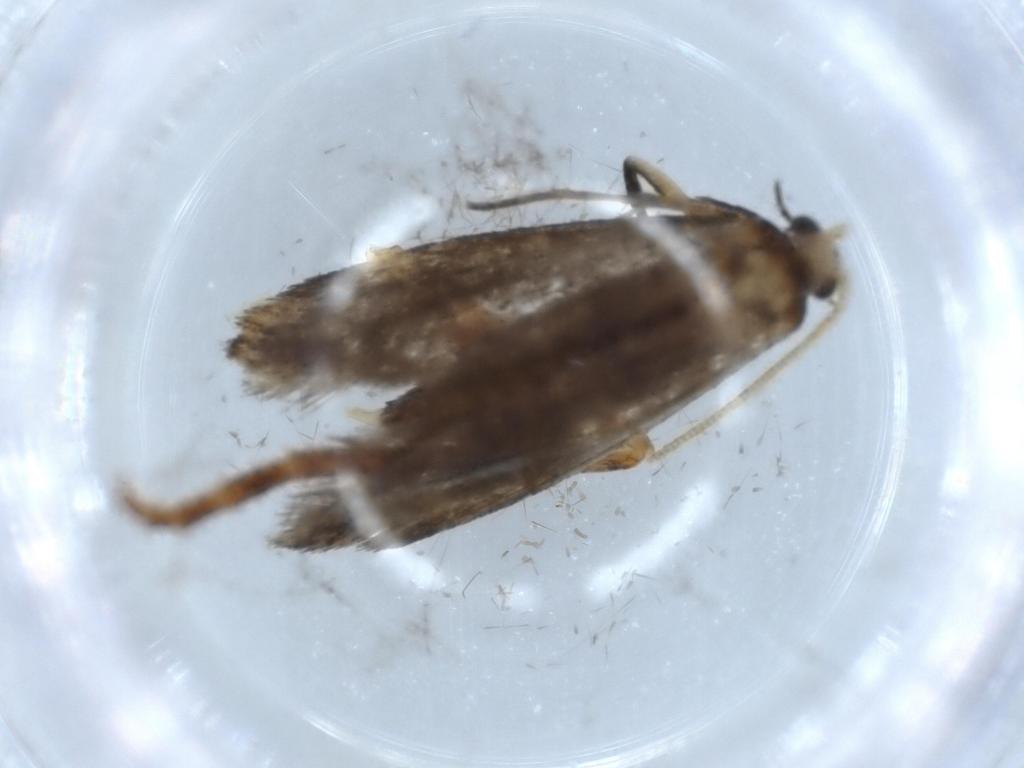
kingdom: Animalia
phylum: Arthropoda
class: Insecta
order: Lepidoptera
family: Tineidae
